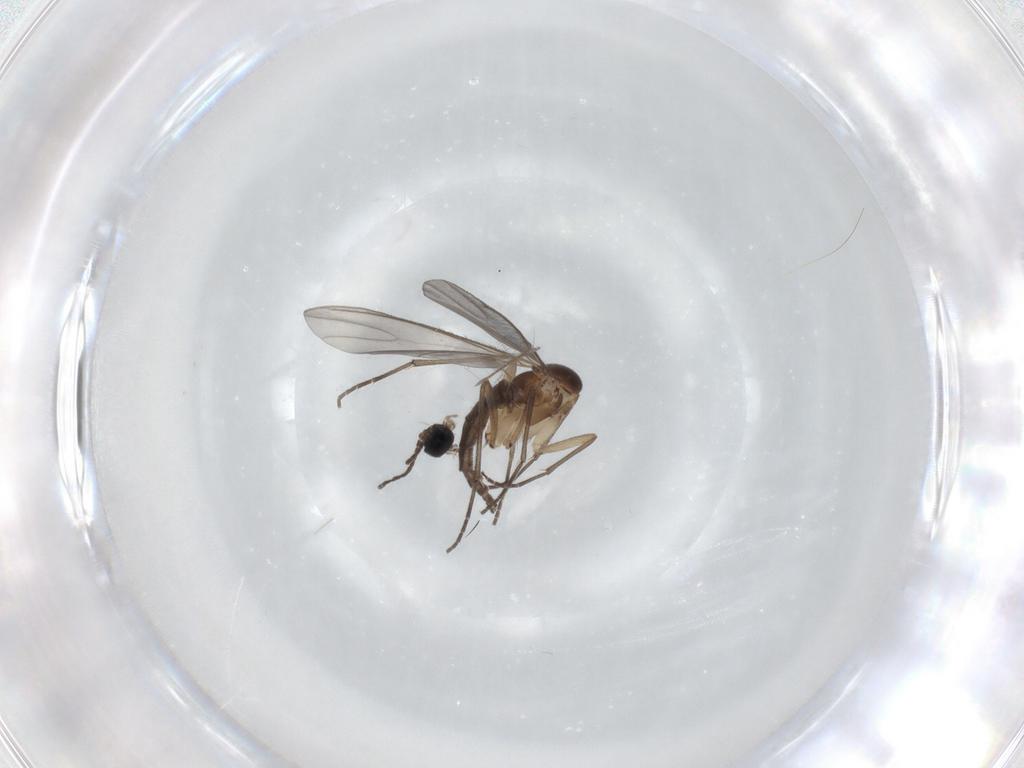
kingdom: Animalia
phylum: Arthropoda
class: Insecta
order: Diptera
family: Sciaridae
